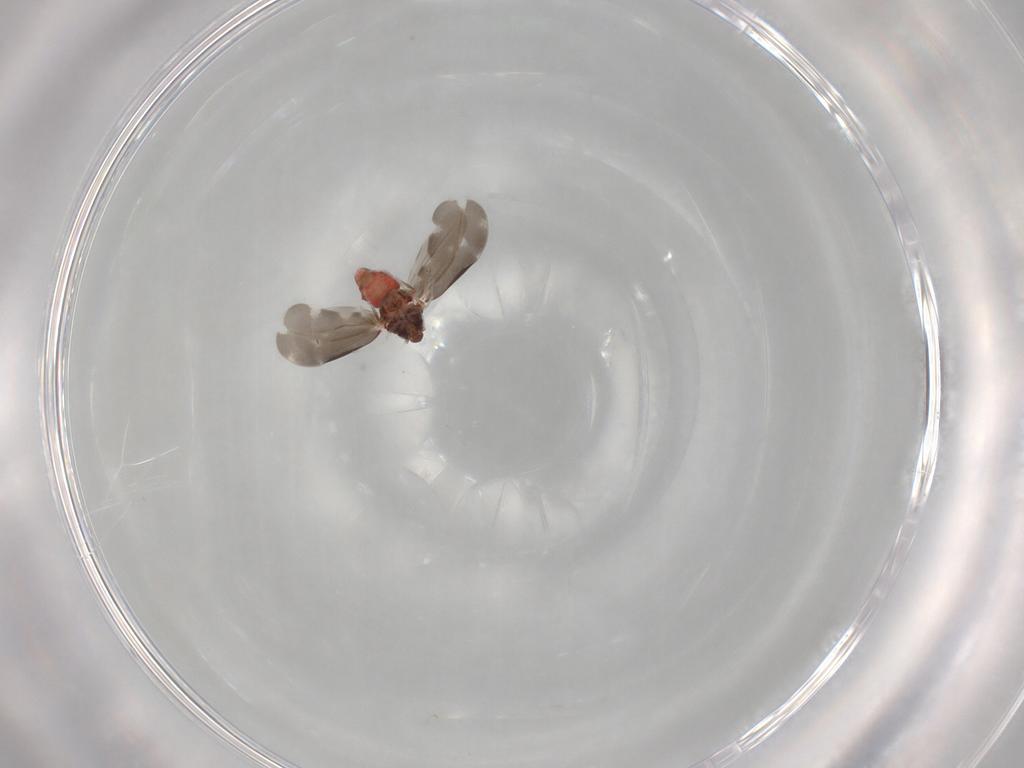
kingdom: Animalia
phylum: Arthropoda
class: Insecta
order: Hemiptera
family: Aleyrodidae
